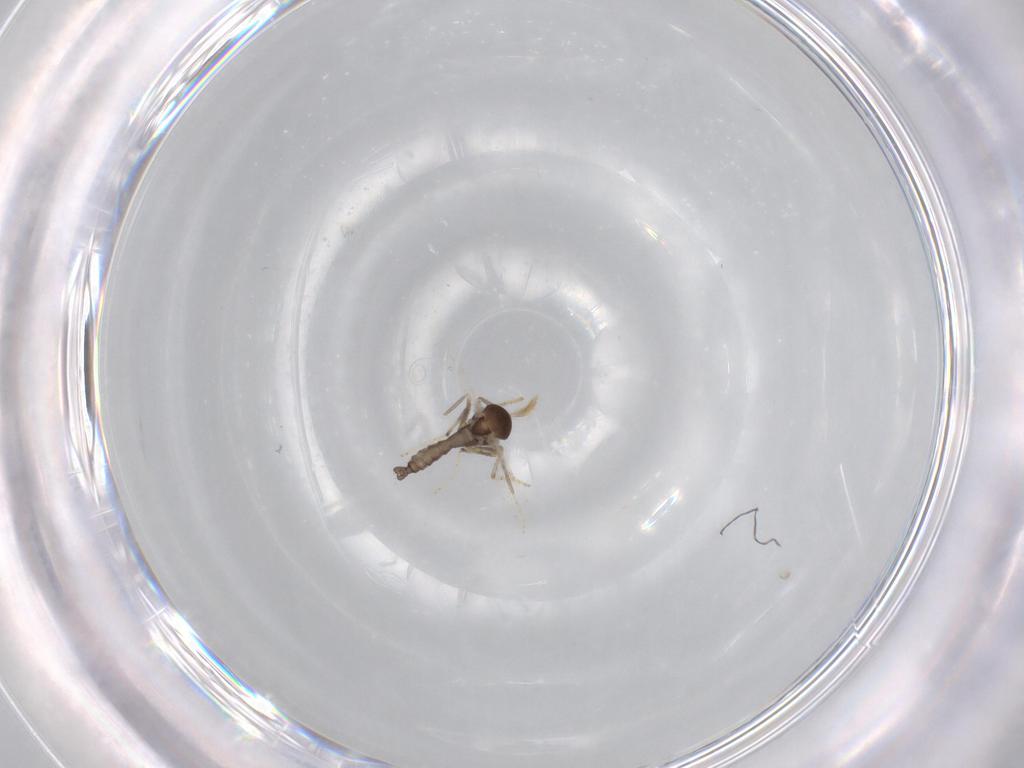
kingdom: Animalia
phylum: Arthropoda
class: Insecta
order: Diptera
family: Ceratopogonidae
